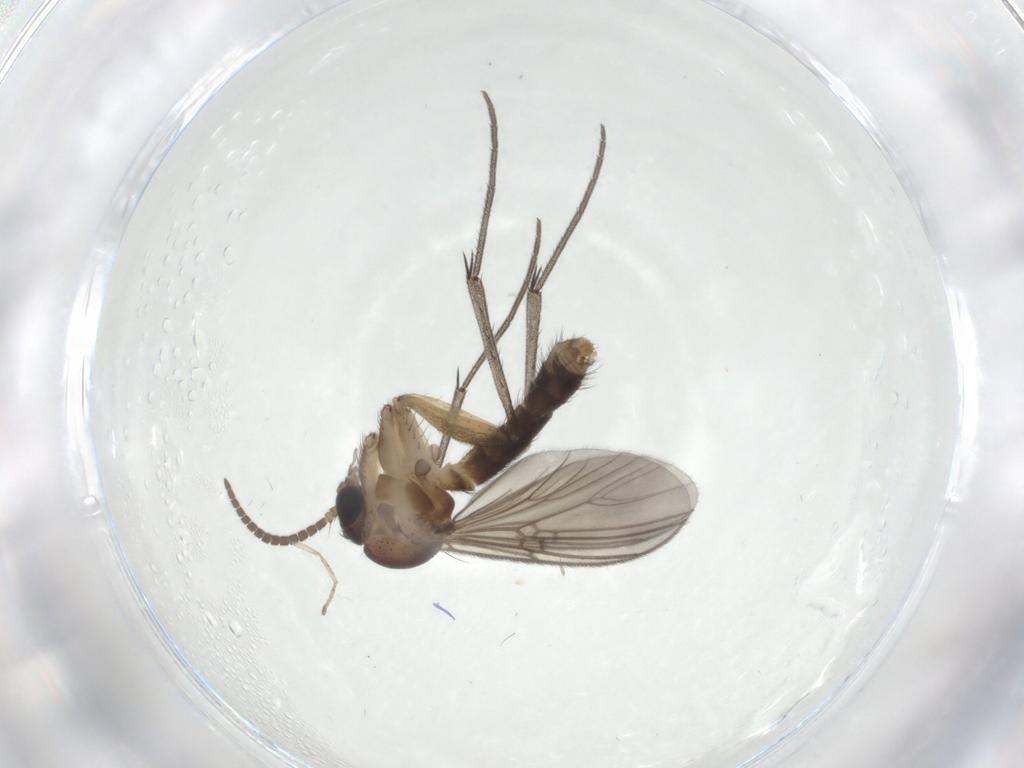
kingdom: Animalia
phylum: Arthropoda
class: Insecta
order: Diptera
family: Mycetophilidae
